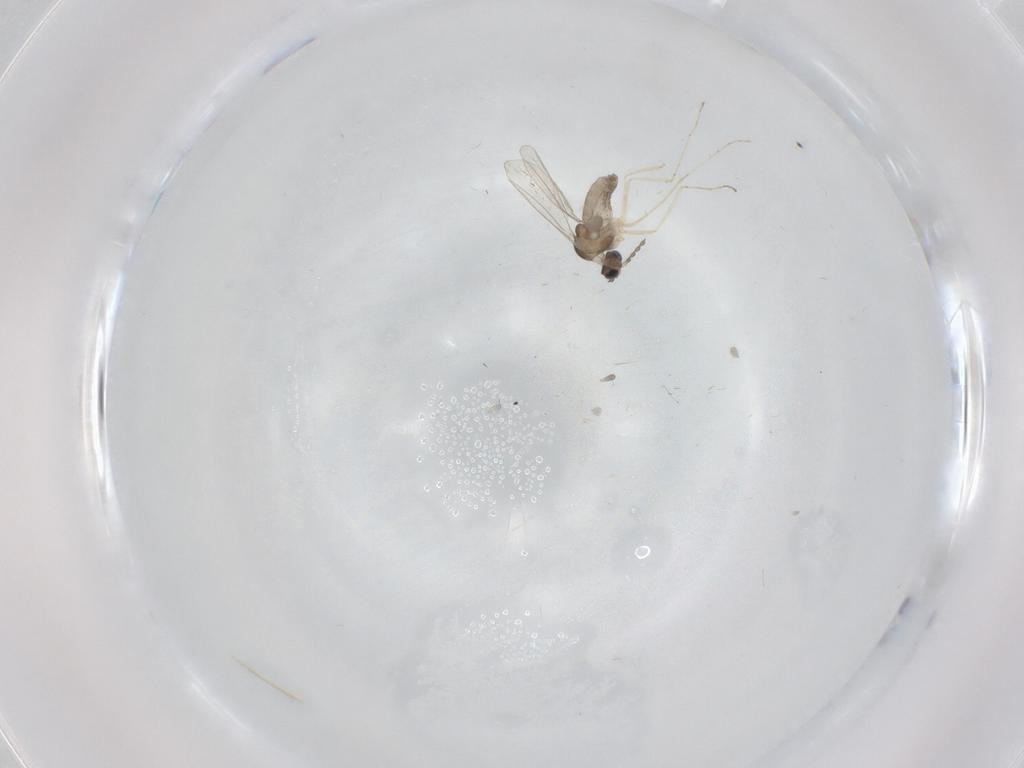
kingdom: Animalia
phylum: Arthropoda
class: Insecta
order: Diptera
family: Cecidomyiidae
